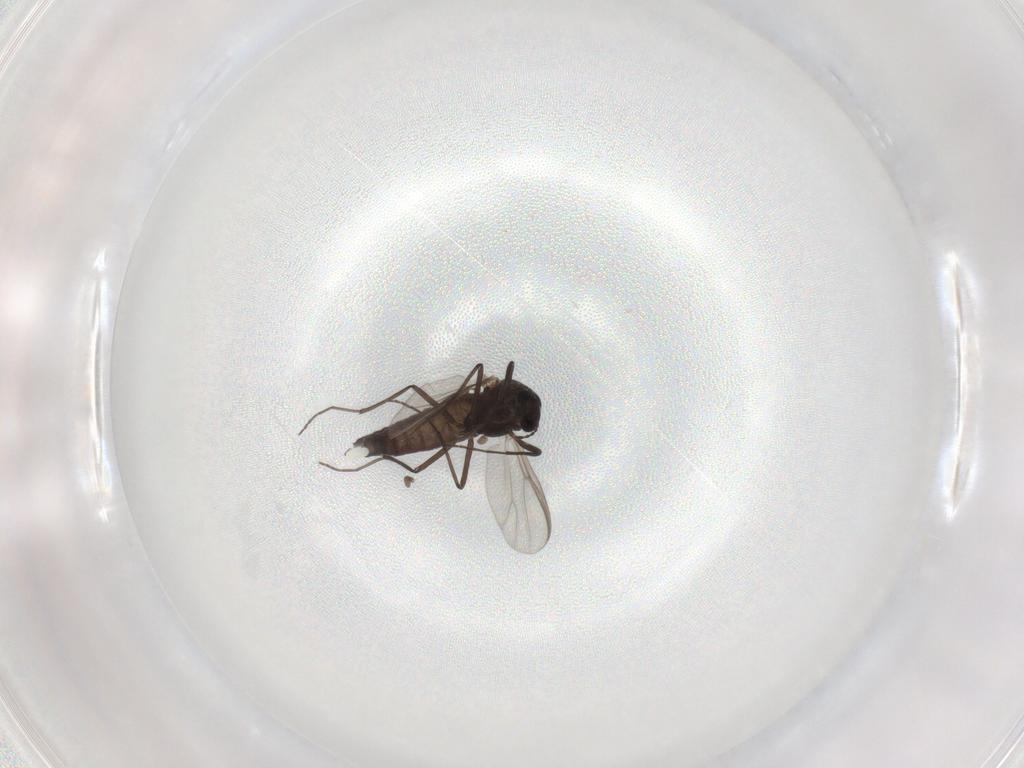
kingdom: Animalia
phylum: Arthropoda
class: Insecta
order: Diptera
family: Chironomidae
